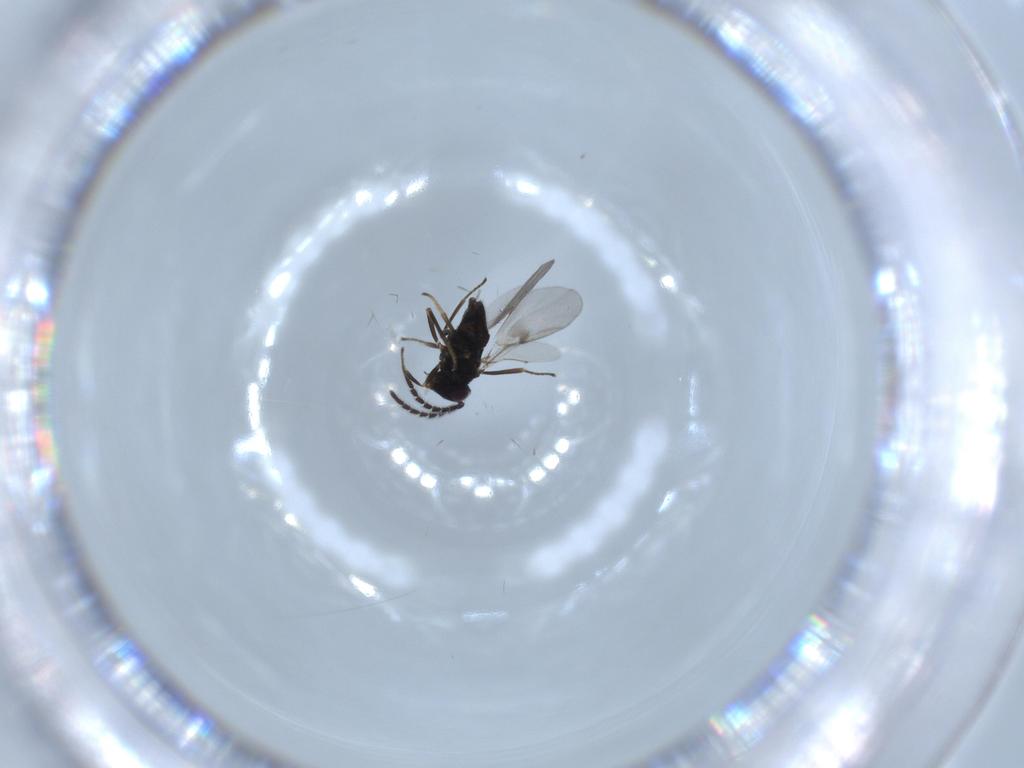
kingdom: Animalia
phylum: Arthropoda
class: Insecta
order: Hymenoptera
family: Encyrtidae
